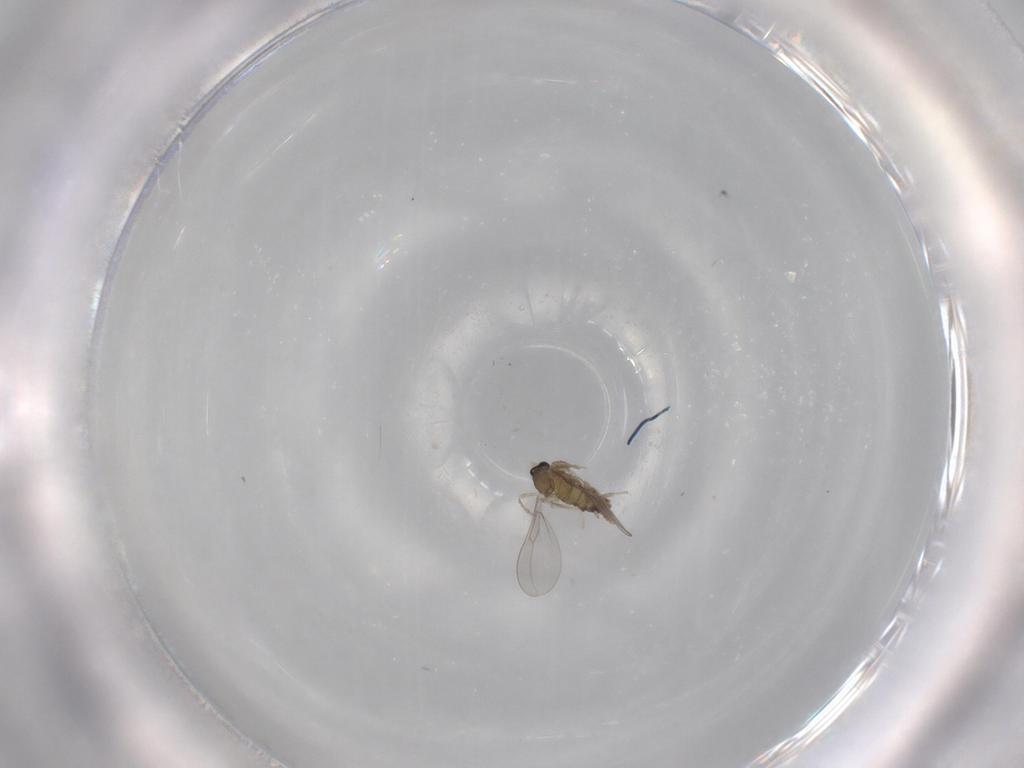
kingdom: Animalia
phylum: Arthropoda
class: Insecta
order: Diptera
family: Cecidomyiidae
